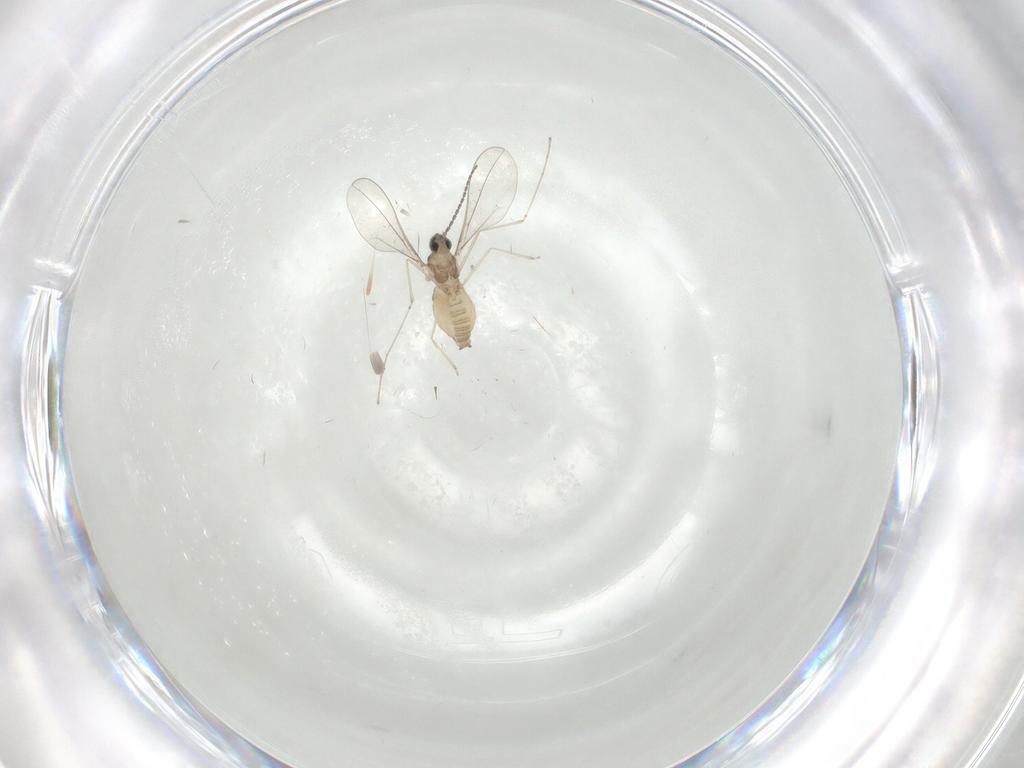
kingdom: Animalia
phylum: Arthropoda
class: Insecta
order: Diptera
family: Cecidomyiidae
